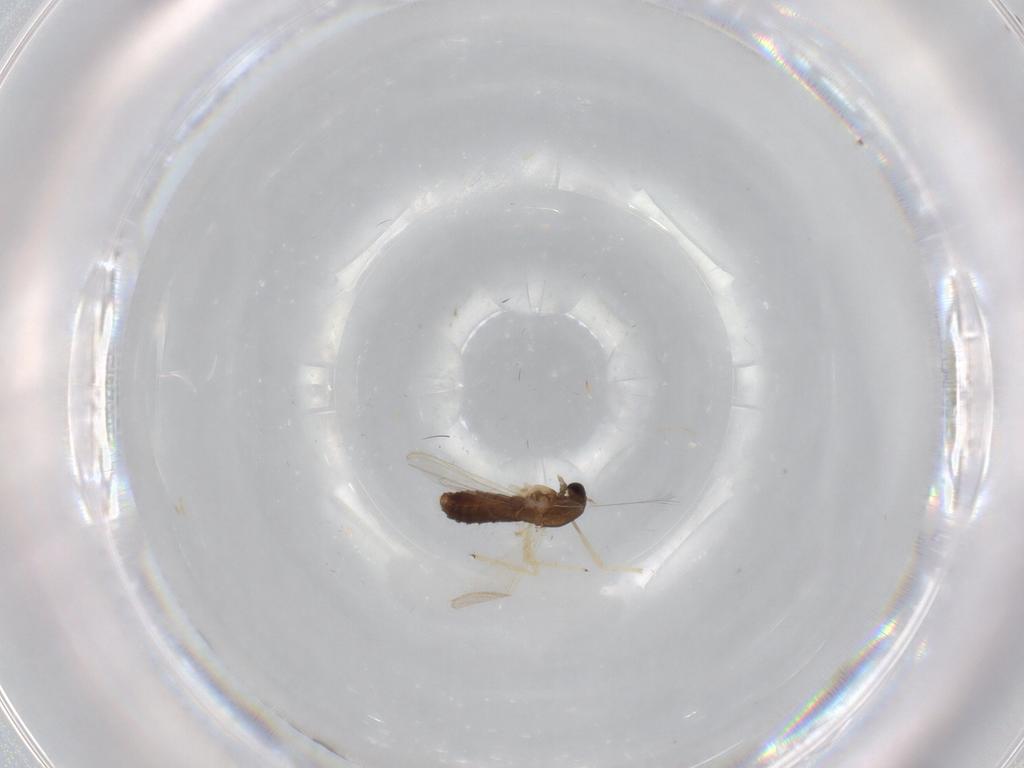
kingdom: Animalia
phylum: Arthropoda
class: Insecta
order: Diptera
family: Chironomidae
